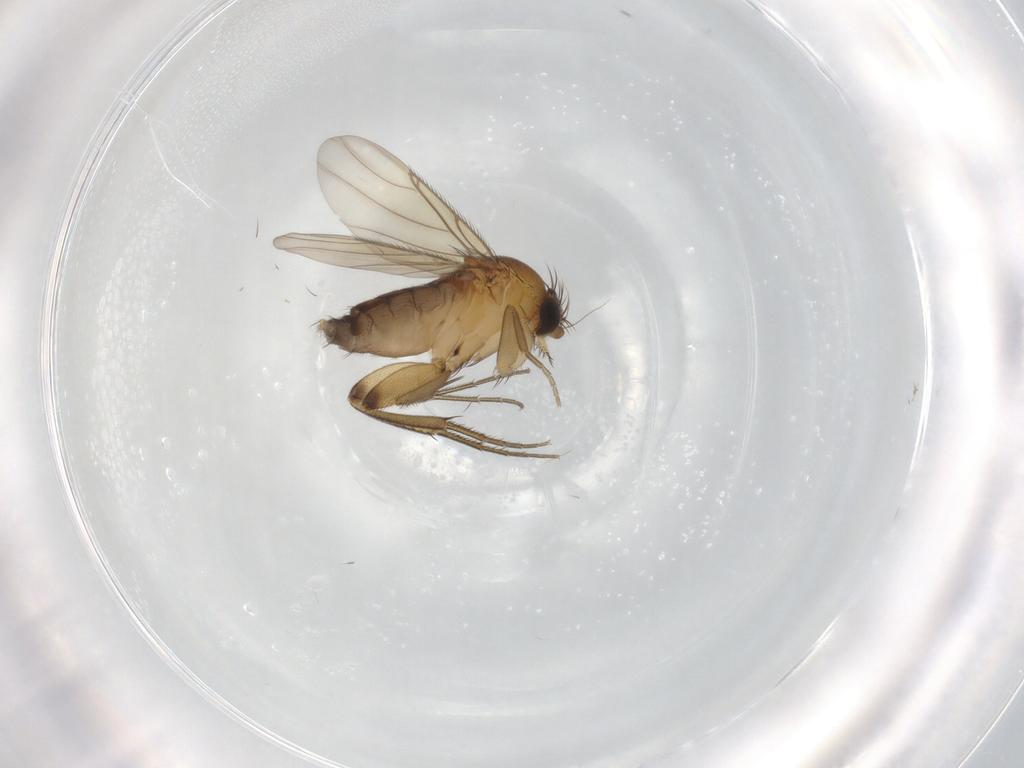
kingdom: Animalia
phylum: Arthropoda
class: Insecta
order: Diptera
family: Phoridae
